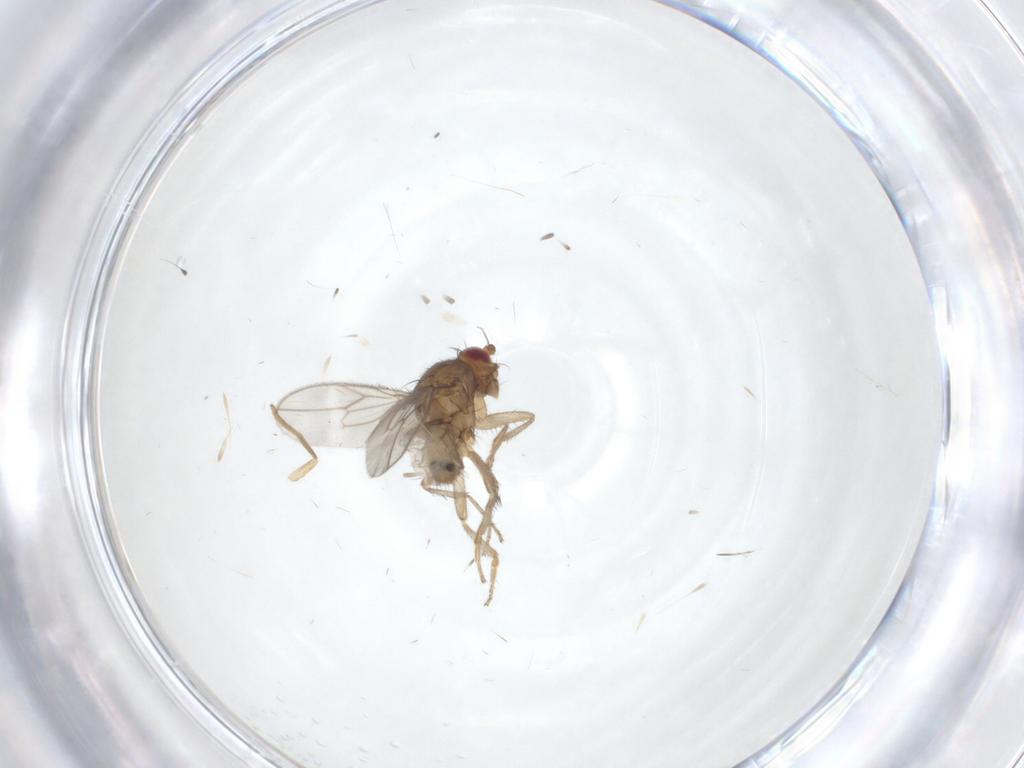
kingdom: Animalia
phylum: Arthropoda
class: Insecta
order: Diptera
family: Sphaeroceridae
